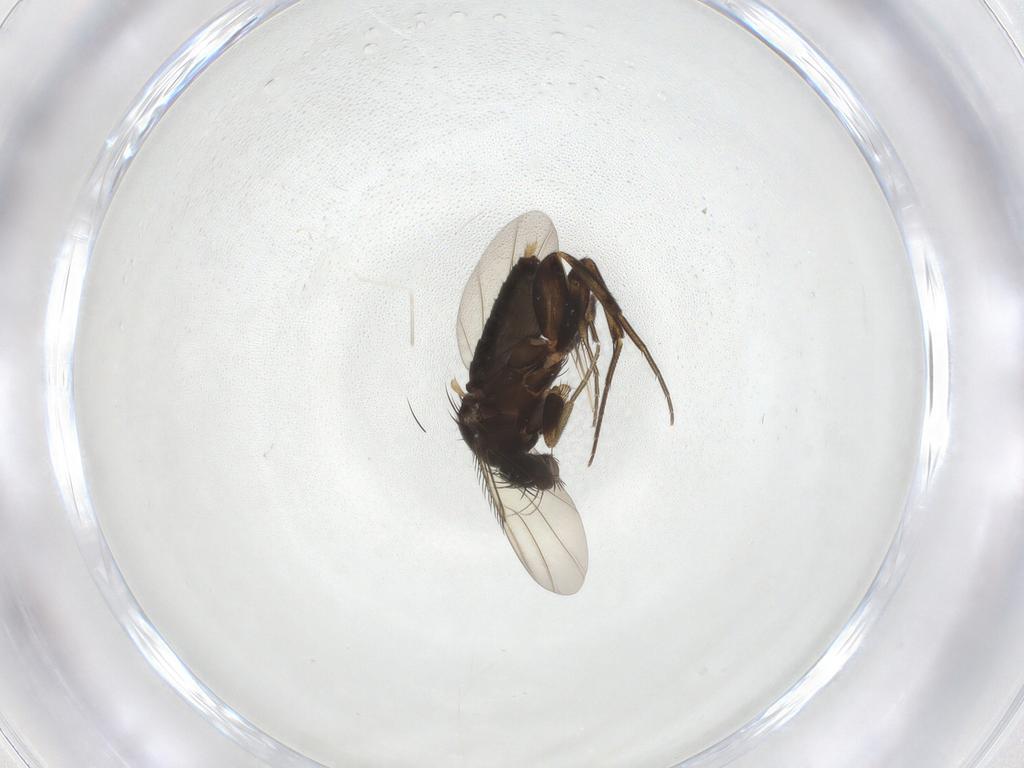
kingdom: Animalia
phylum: Arthropoda
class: Insecta
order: Diptera
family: Phoridae
